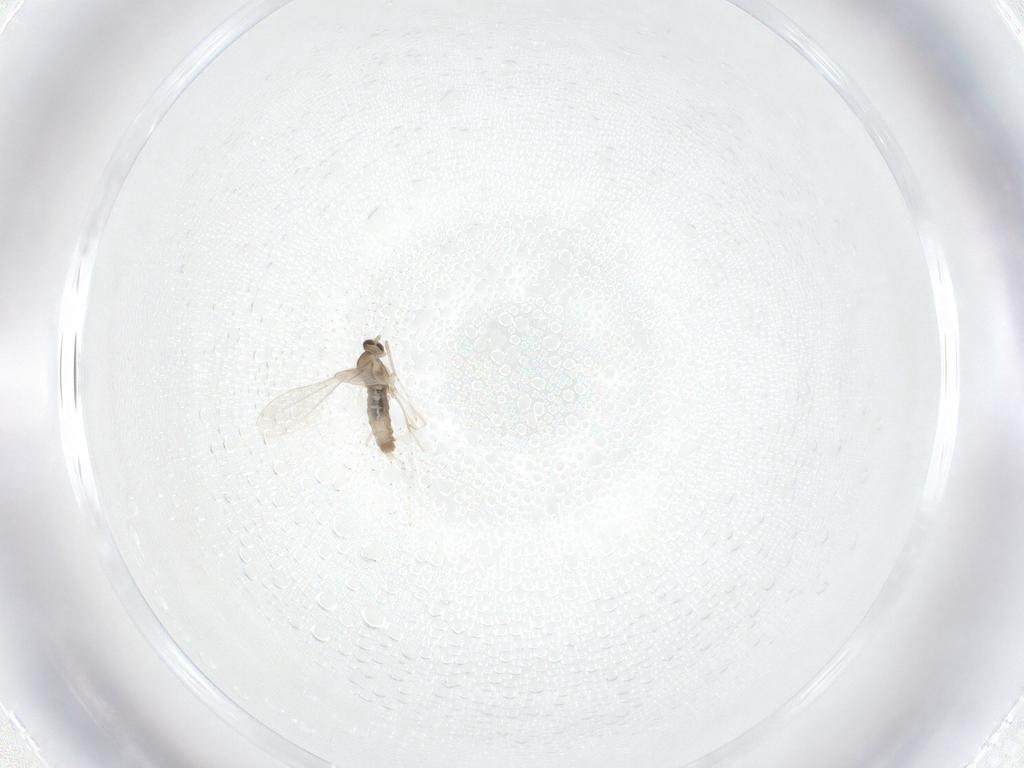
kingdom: Animalia
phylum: Arthropoda
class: Insecta
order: Diptera
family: Cecidomyiidae
